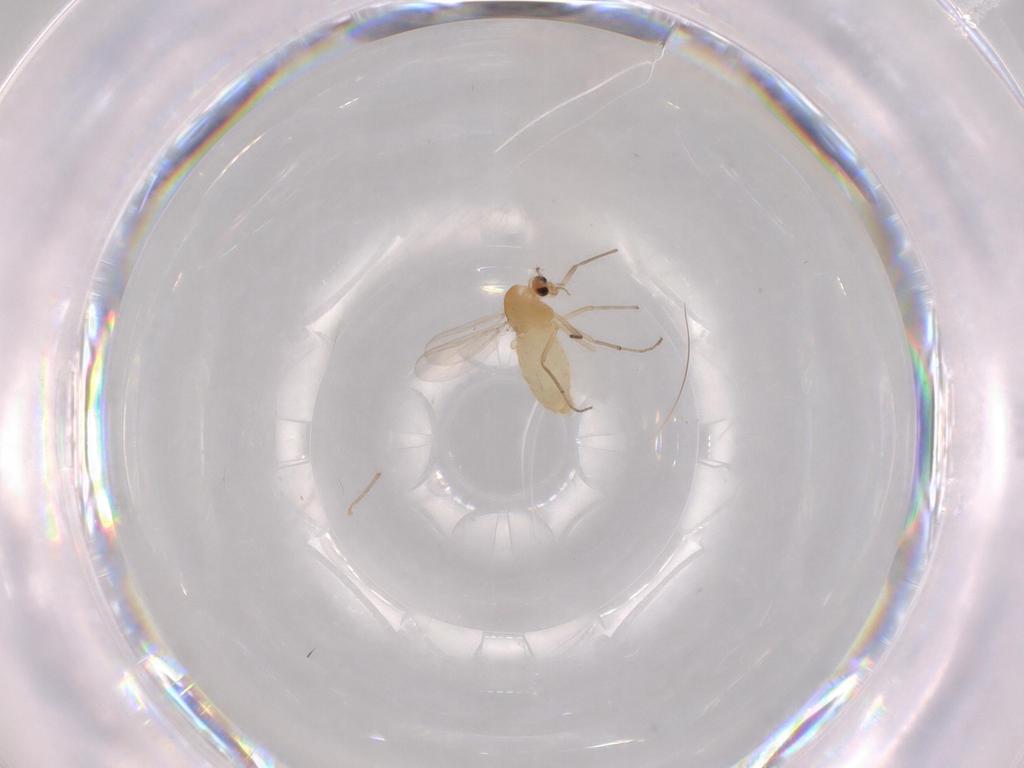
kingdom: Animalia
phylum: Arthropoda
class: Insecta
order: Diptera
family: Chironomidae
